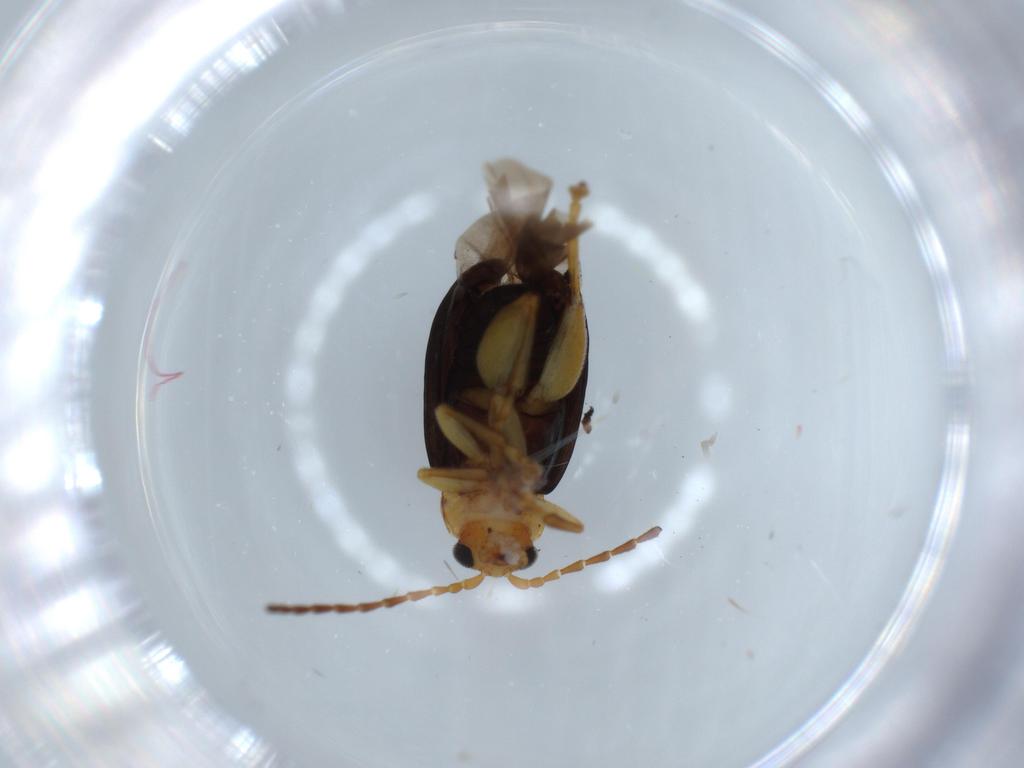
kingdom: Animalia
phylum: Arthropoda
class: Insecta
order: Coleoptera
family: Chrysomelidae
